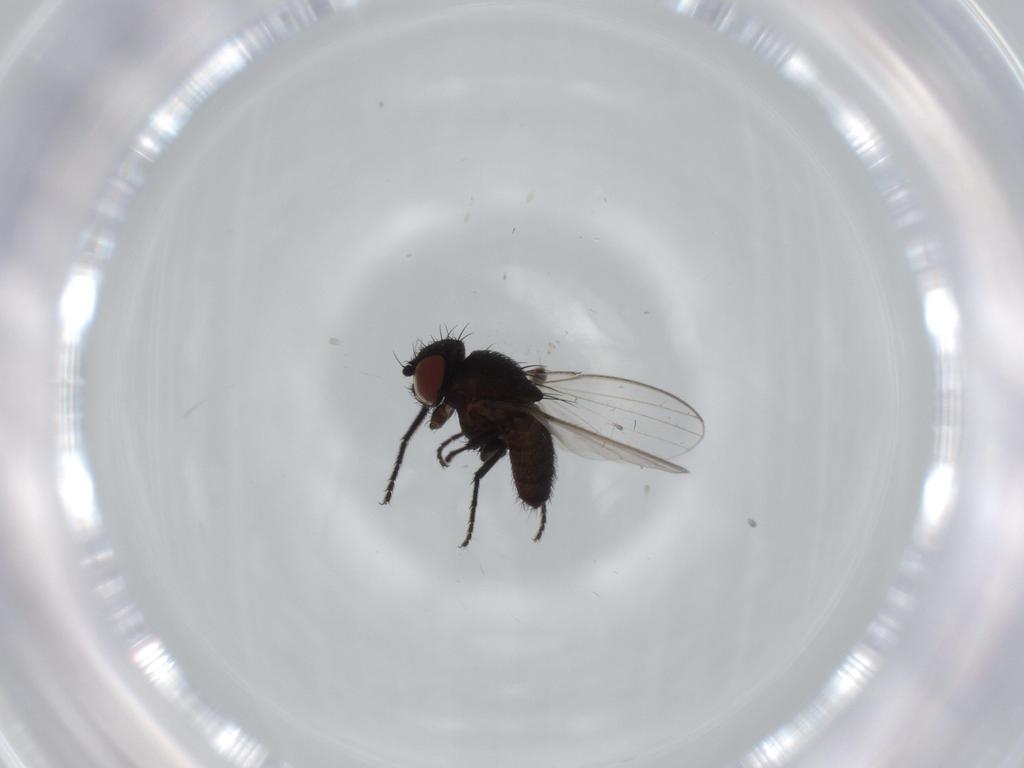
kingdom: Animalia
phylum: Arthropoda
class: Insecta
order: Diptera
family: Milichiidae
